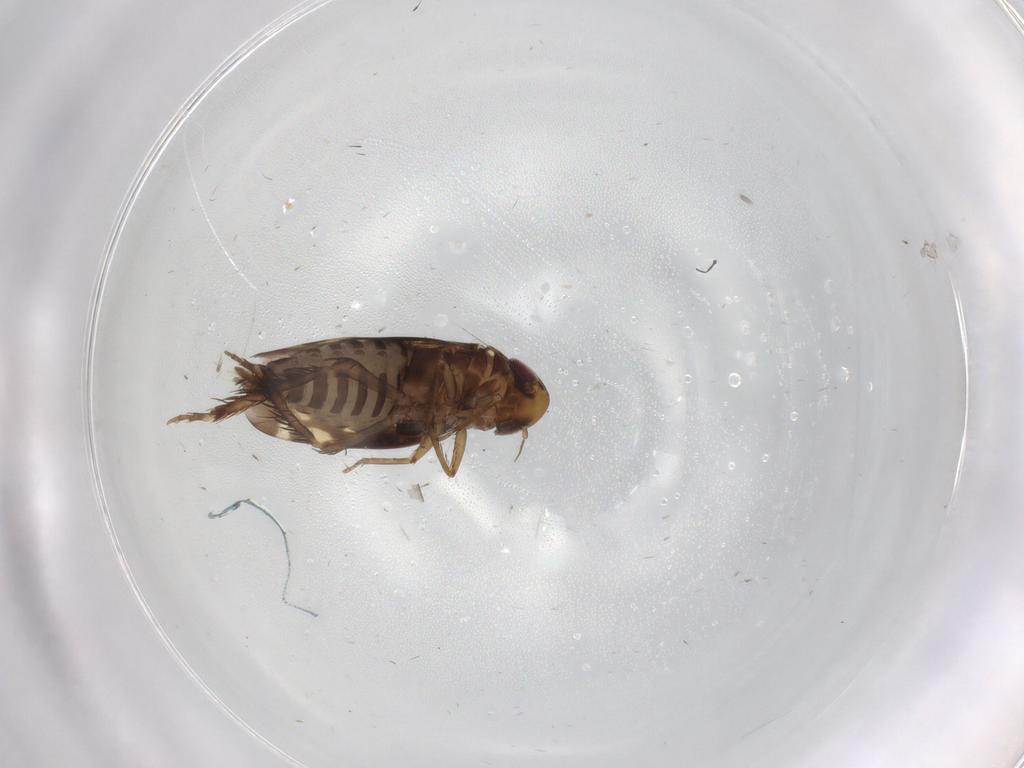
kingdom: Animalia
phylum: Arthropoda
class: Insecta
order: Hemiptera
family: Cicadellidae
